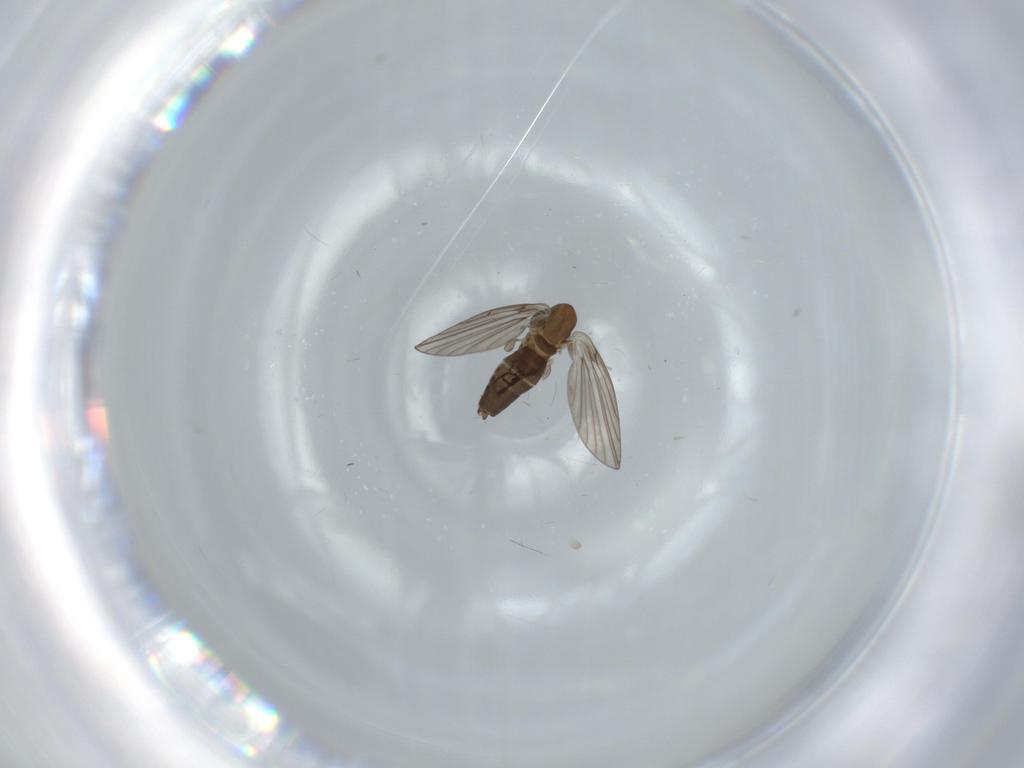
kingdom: Animalia
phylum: Arthropoda
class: Insecta
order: Diptera
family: Psychodidae
